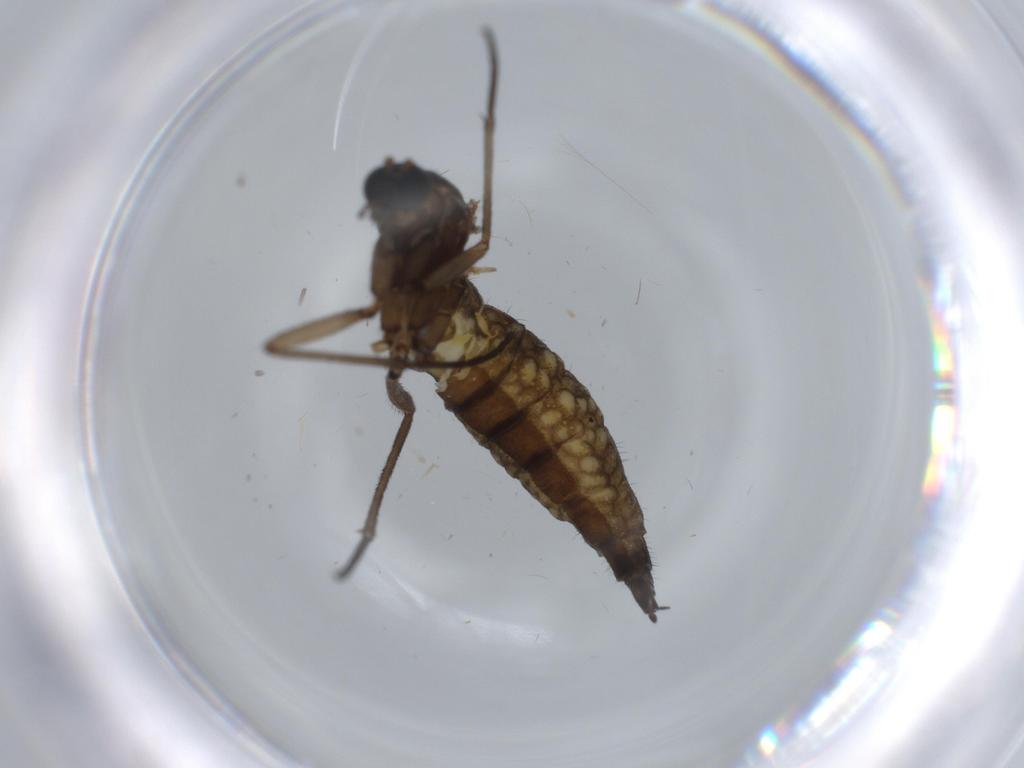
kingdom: Animalia
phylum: Arthropoda
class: Insecta
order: Diptera
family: Sciaridae
